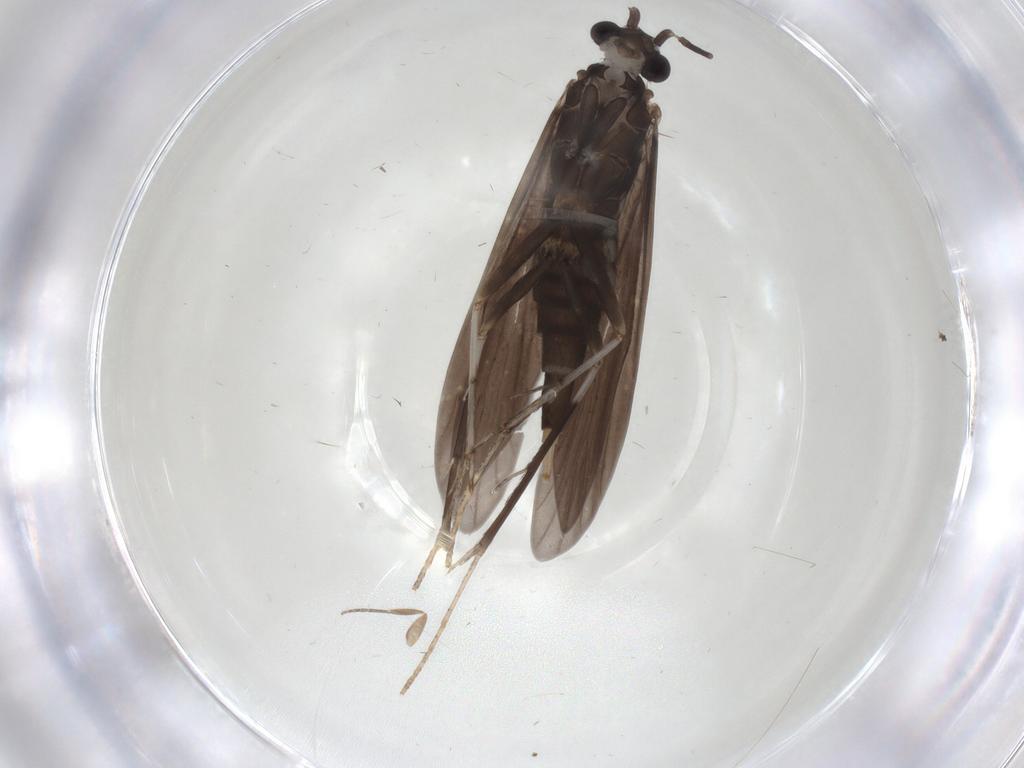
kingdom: Animalia
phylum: Arthropoda
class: Insecta
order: Trichoptera
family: Xiphocentronidae
